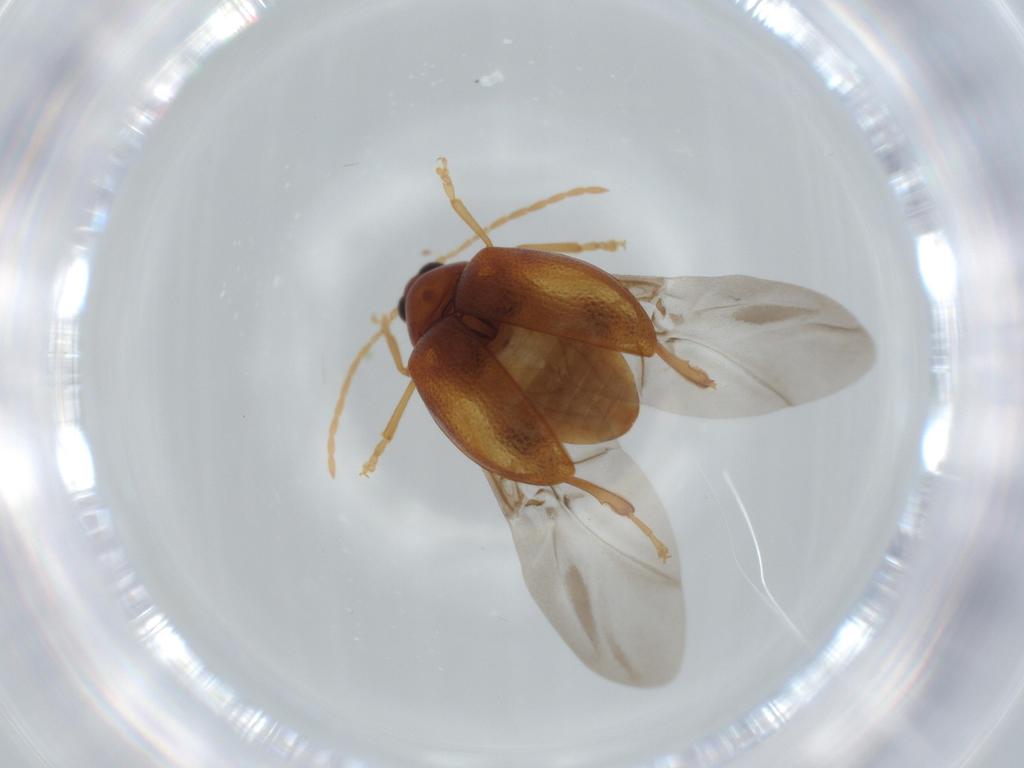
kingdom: Animalia
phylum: Arthropoda
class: Insecta
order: Coleoptera
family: Chrysomelidae
